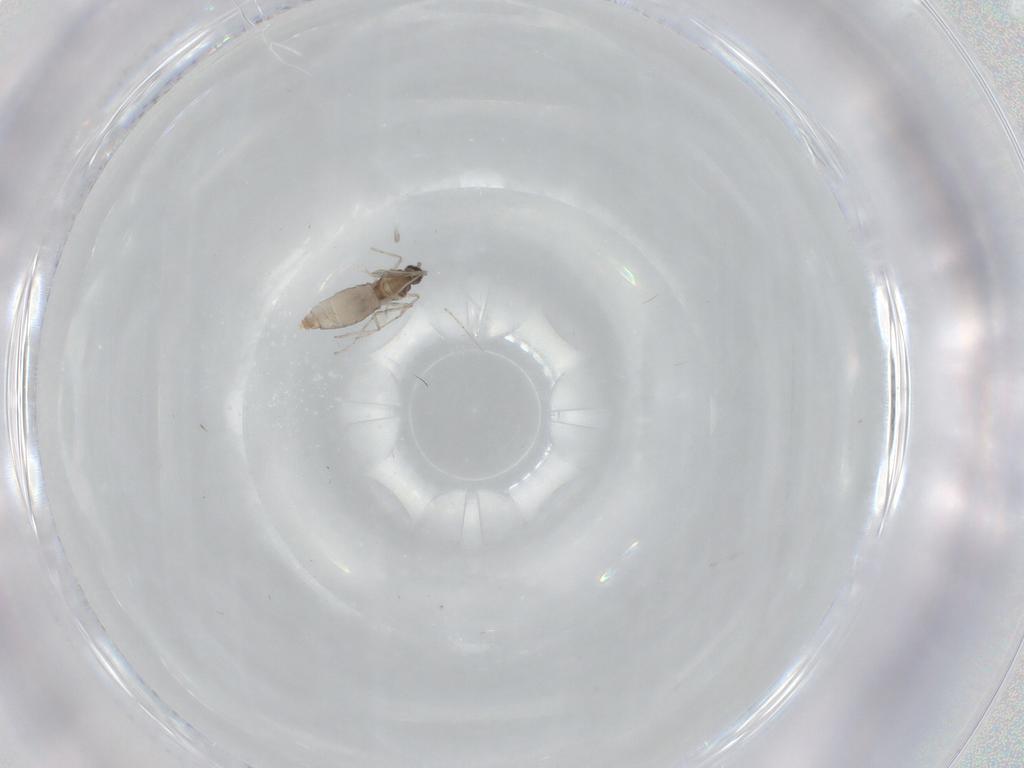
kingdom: Animalia
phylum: Arthropoda
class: Insecta
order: Diptera
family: Cecidomyiidae
